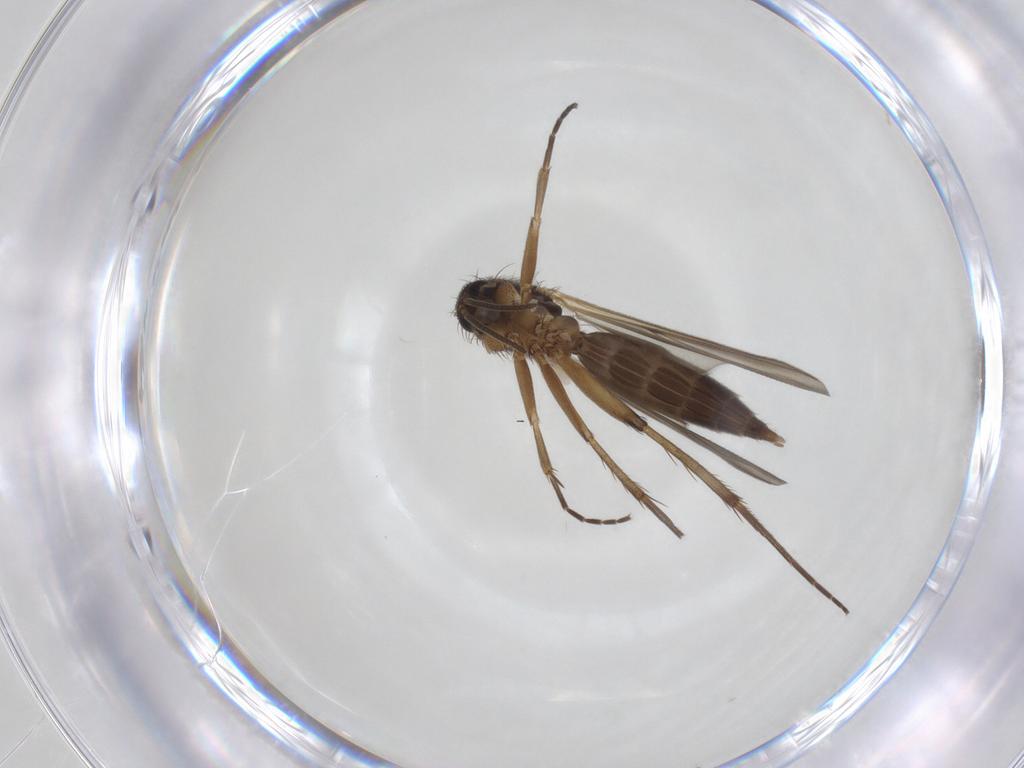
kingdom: Animalia
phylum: Arthropoda
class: Insecta
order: Diptera
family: Mycetophilidae
